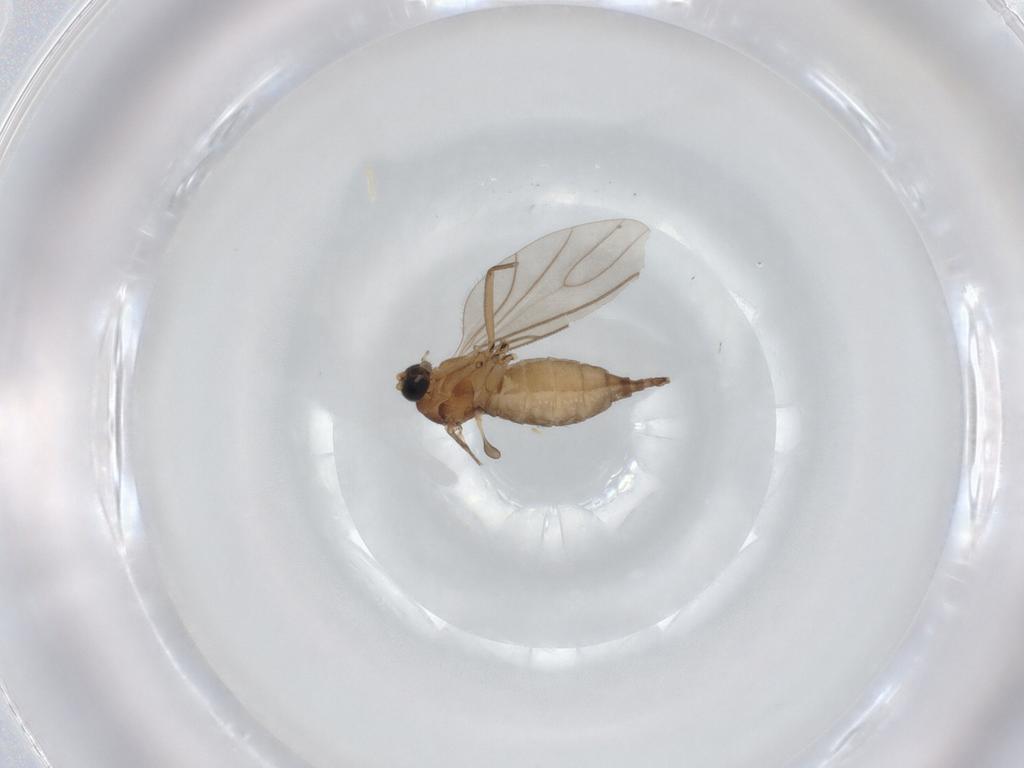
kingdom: Animalia
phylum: Arthropoda
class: Insecta
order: Diptera
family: Sciaridae
